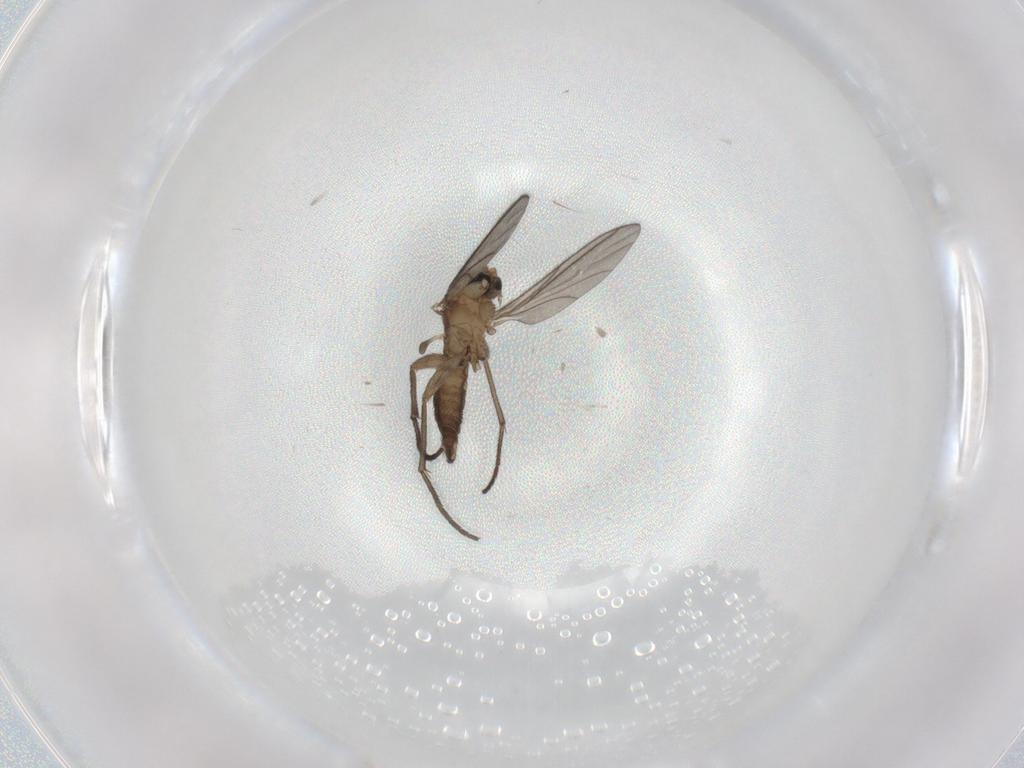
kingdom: Animalia
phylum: Arthropoda
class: Insecta
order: Diptera
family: Sciaridae
